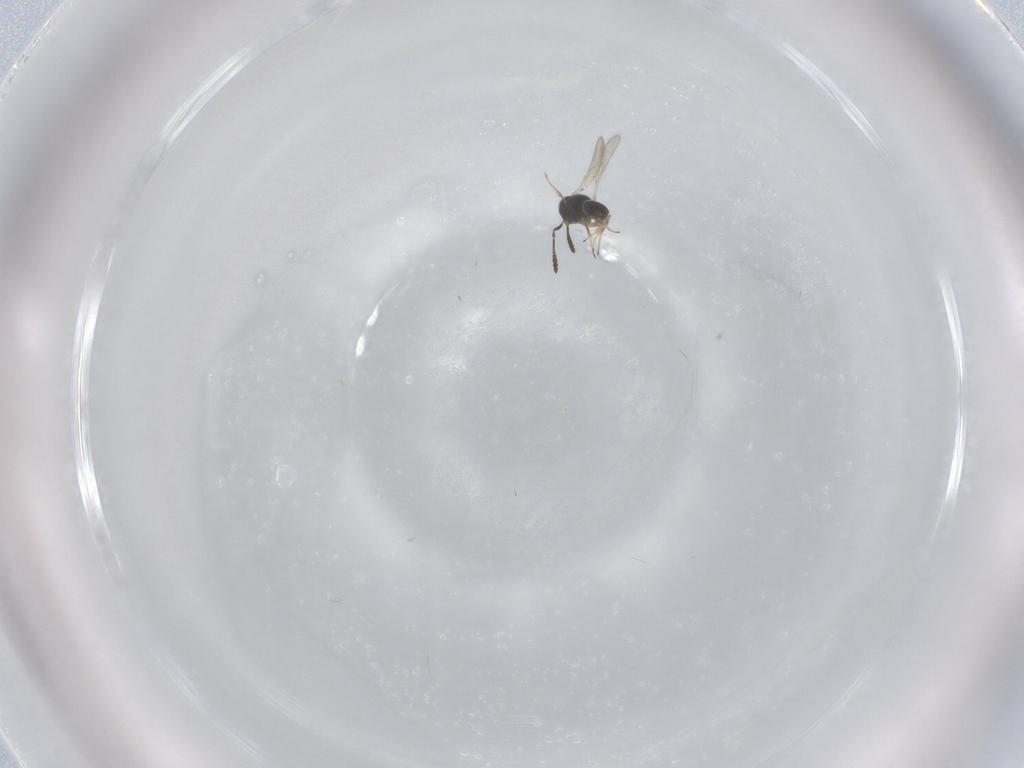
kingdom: Animalia
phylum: Arthropoda
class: Insecta
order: Hymenoptera
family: Scelionidae
